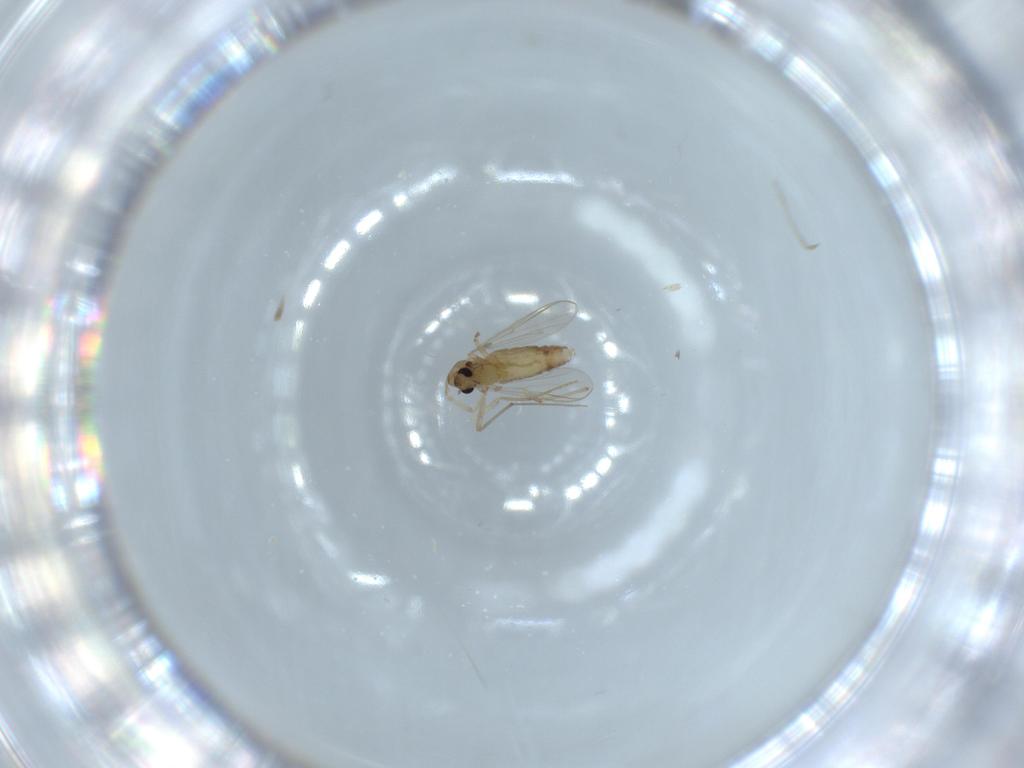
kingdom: Animalia
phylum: Arthropoda
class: Insecta
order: Diptera
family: Chironomidae
